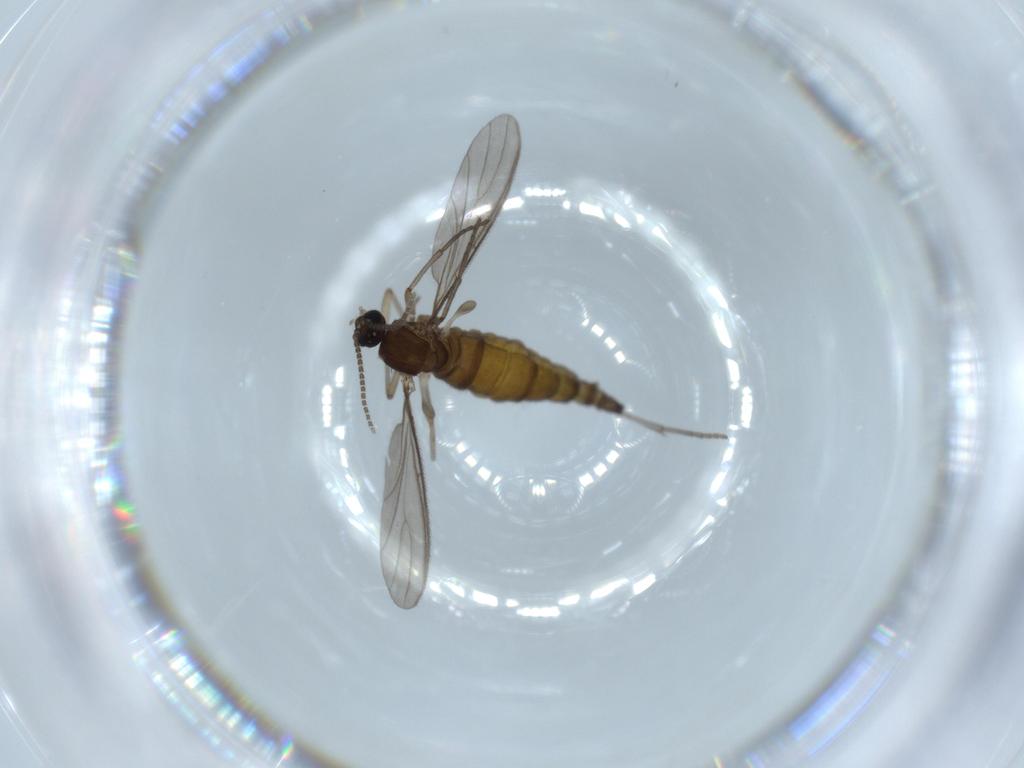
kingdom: Animalia
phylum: Arthropoda
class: Insecta
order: Diptera
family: Sciaridae
